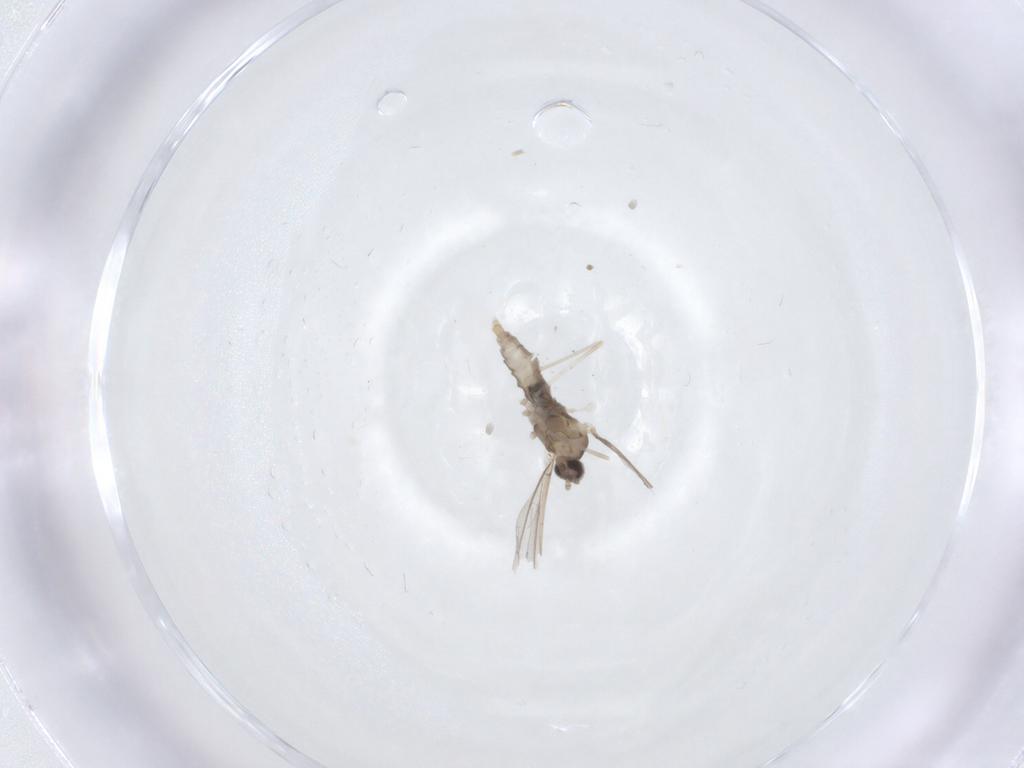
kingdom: Animalia
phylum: Arthropoda
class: Insecta
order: Diptera
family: Cecidomyiidae
